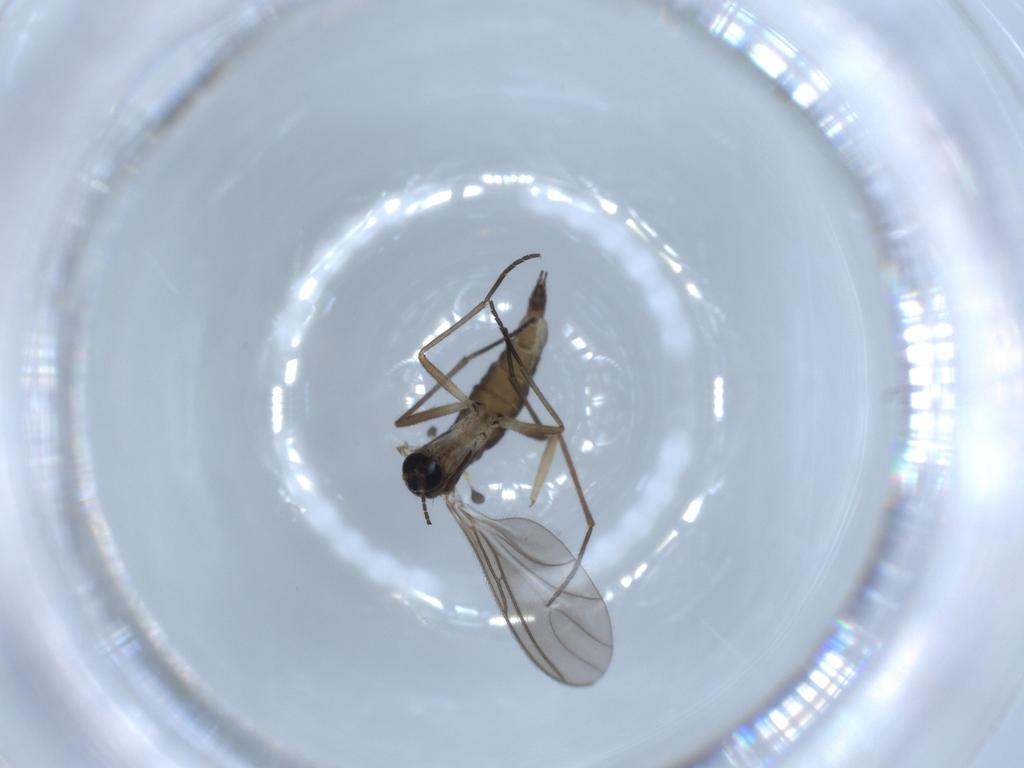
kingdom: Animalia
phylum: Arthropoda
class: Insecta
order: Diptera
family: Sciaridae
